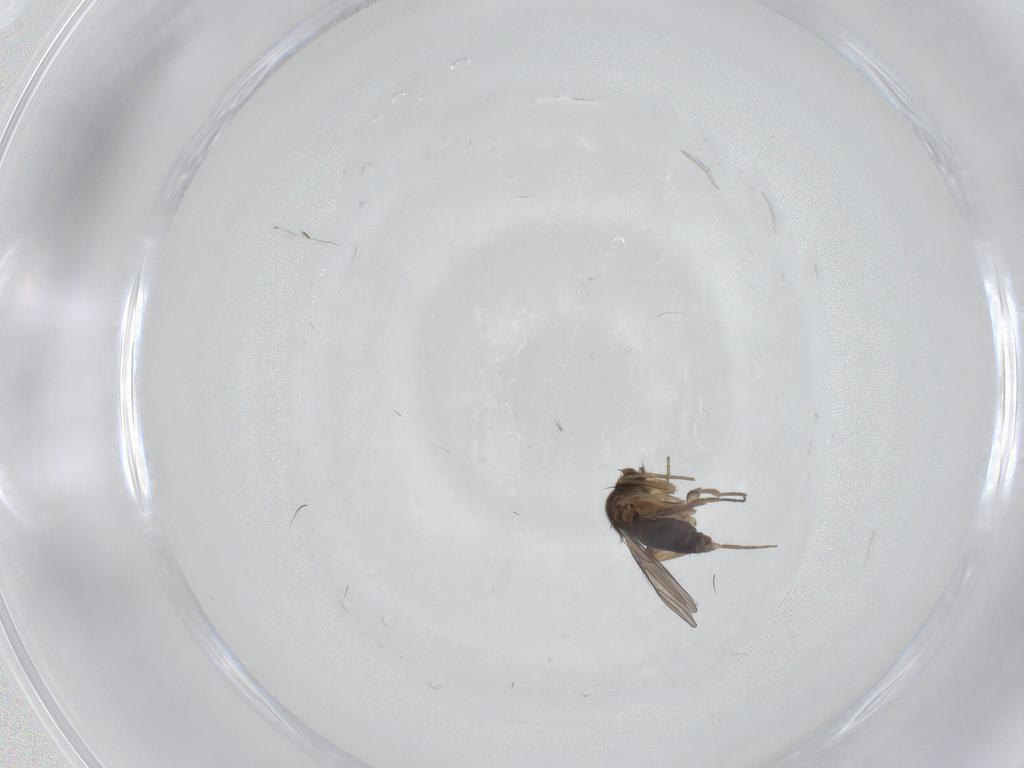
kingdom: Animalia
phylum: Arthropoda
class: Insecta
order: Diptera
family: Phoridae
